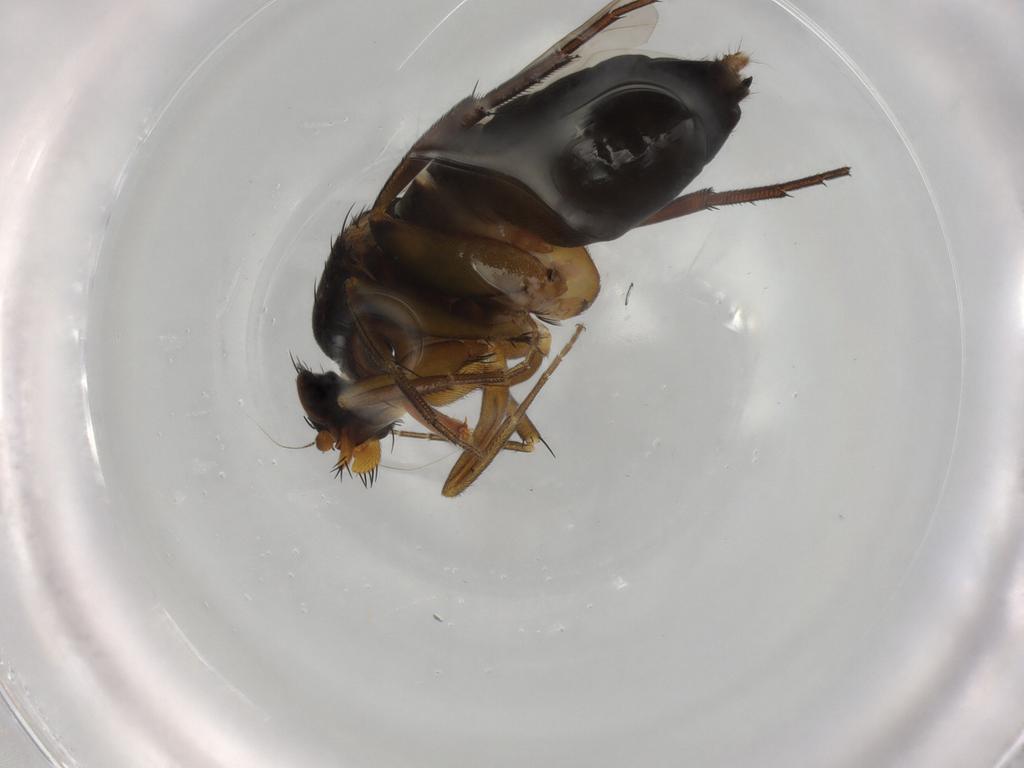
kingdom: Animalia
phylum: Arthropoda
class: Insecta
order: Diptera
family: Phoridae
